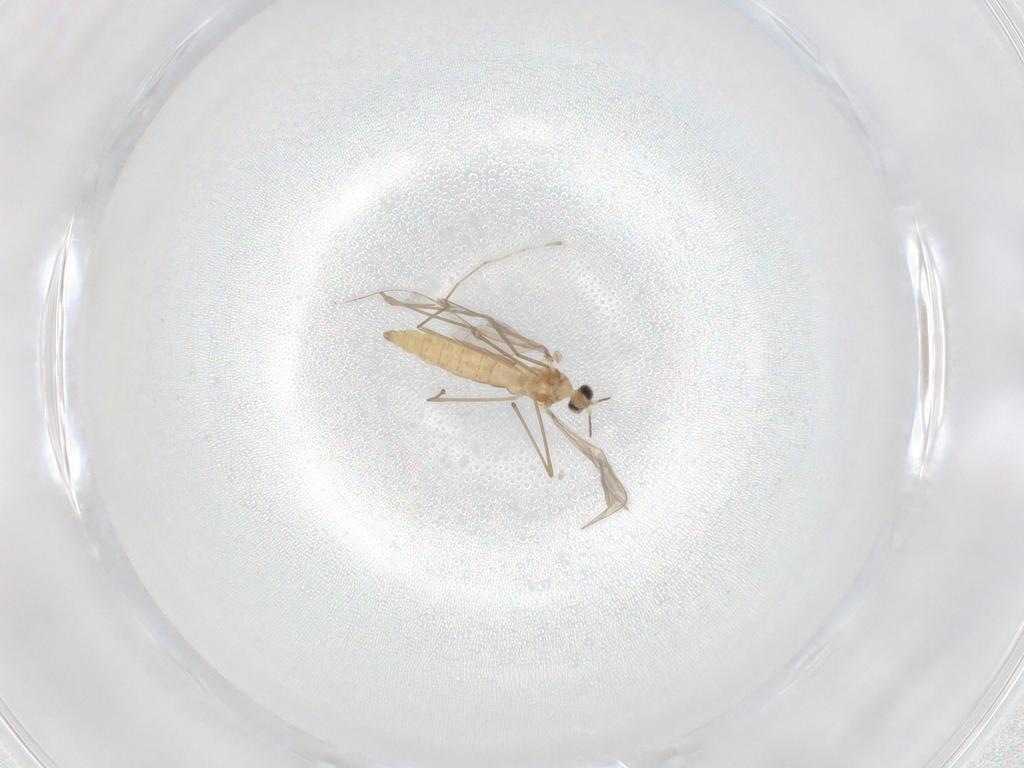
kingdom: Animalia
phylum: Arthropoda
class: Insecta
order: Diptera
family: Cecidomyiidae
